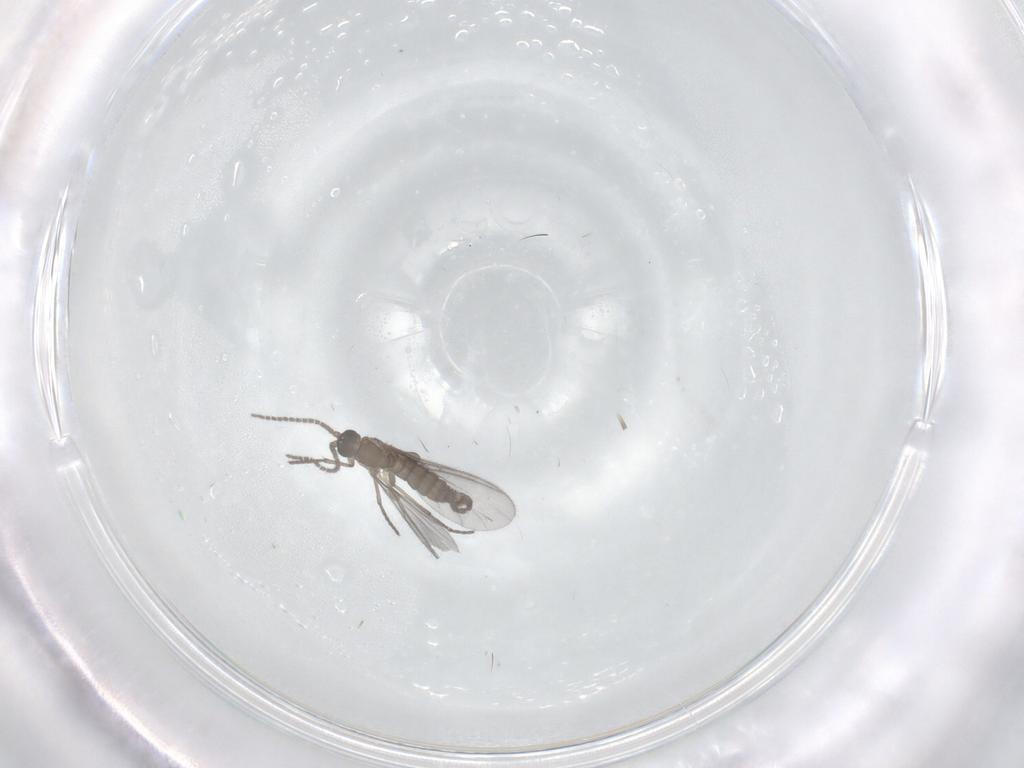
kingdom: Animalia
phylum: Arthropoda
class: Insecta
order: Diptera
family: Sciaridae
